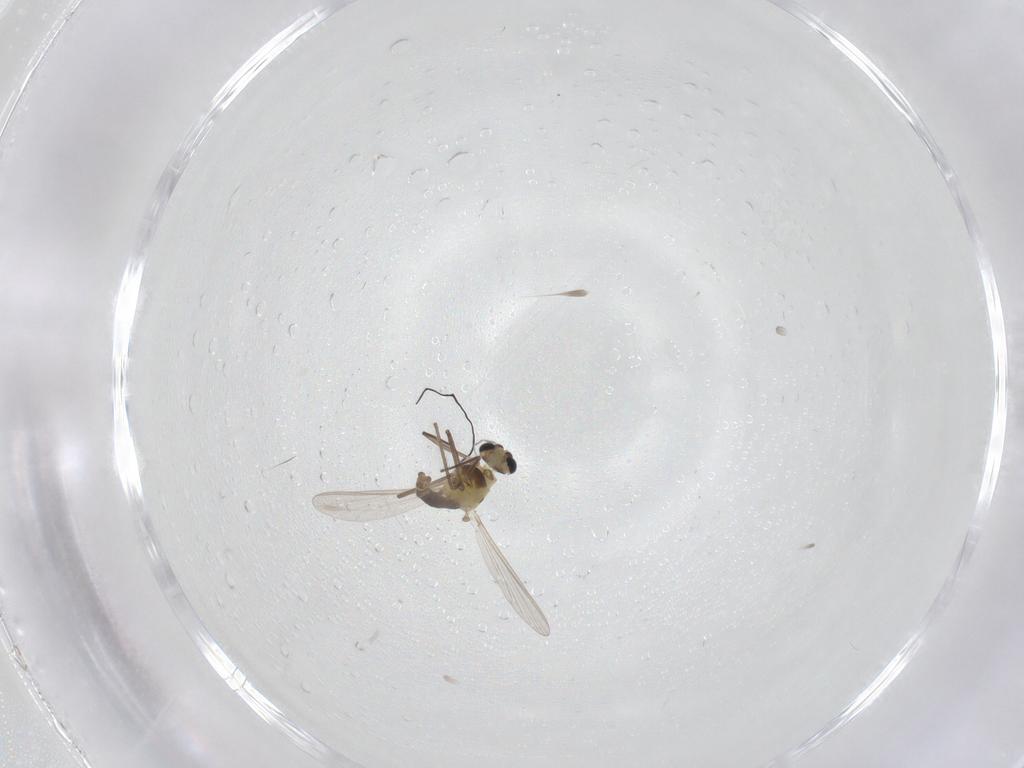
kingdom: Animalia
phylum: Arthropoda
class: Insecta
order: Diptera
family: Chironomidae
